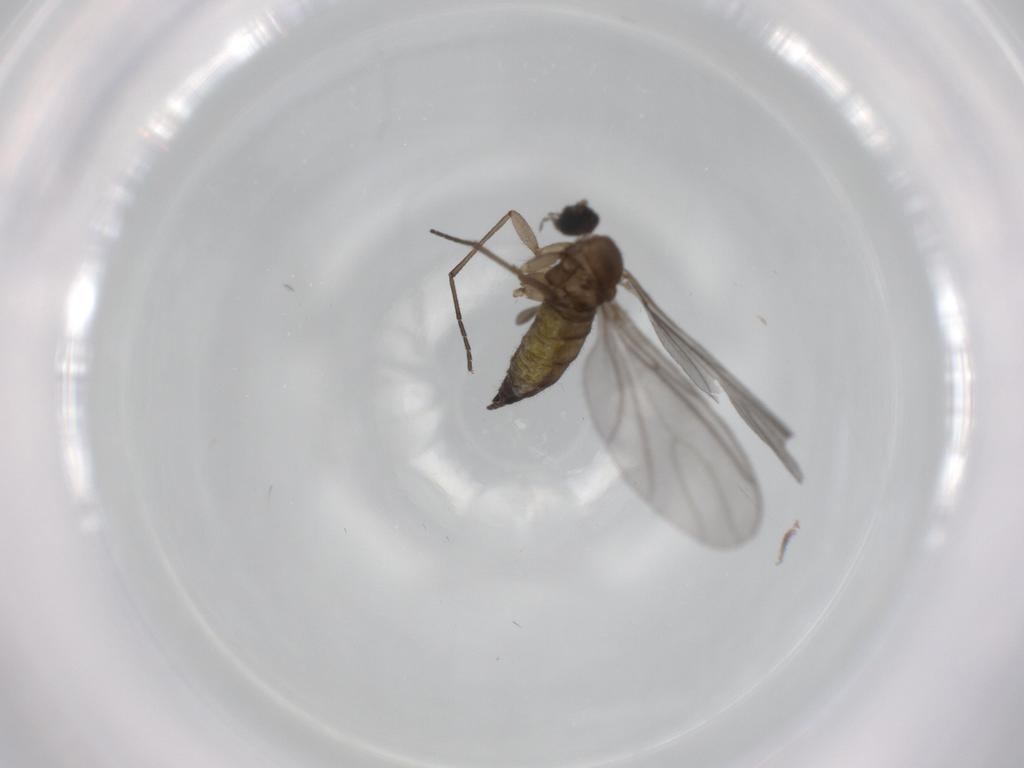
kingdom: Animalia
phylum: Arthropoda
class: Insecta
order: Diptera
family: Sciaridae
